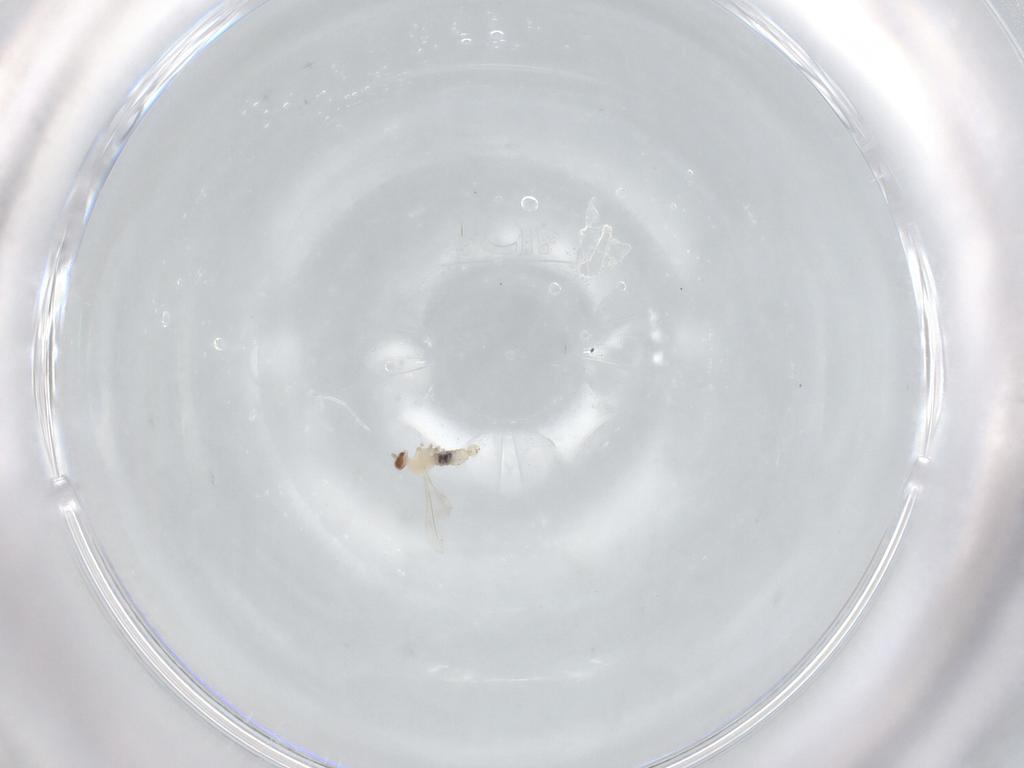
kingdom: Animalia
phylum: Arthropoda
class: Insecta
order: Diptera
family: Cecidomyiidae
